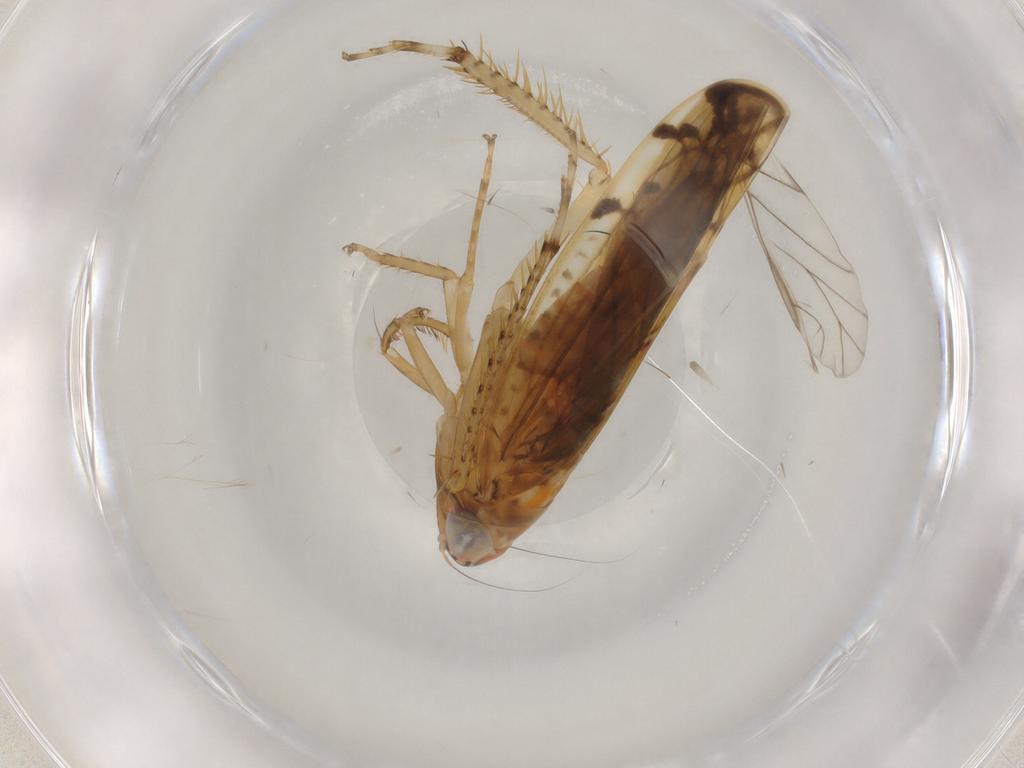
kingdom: Animalia
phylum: Arthropoda
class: Insecta
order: Hemiptera
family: Cicadellidae
